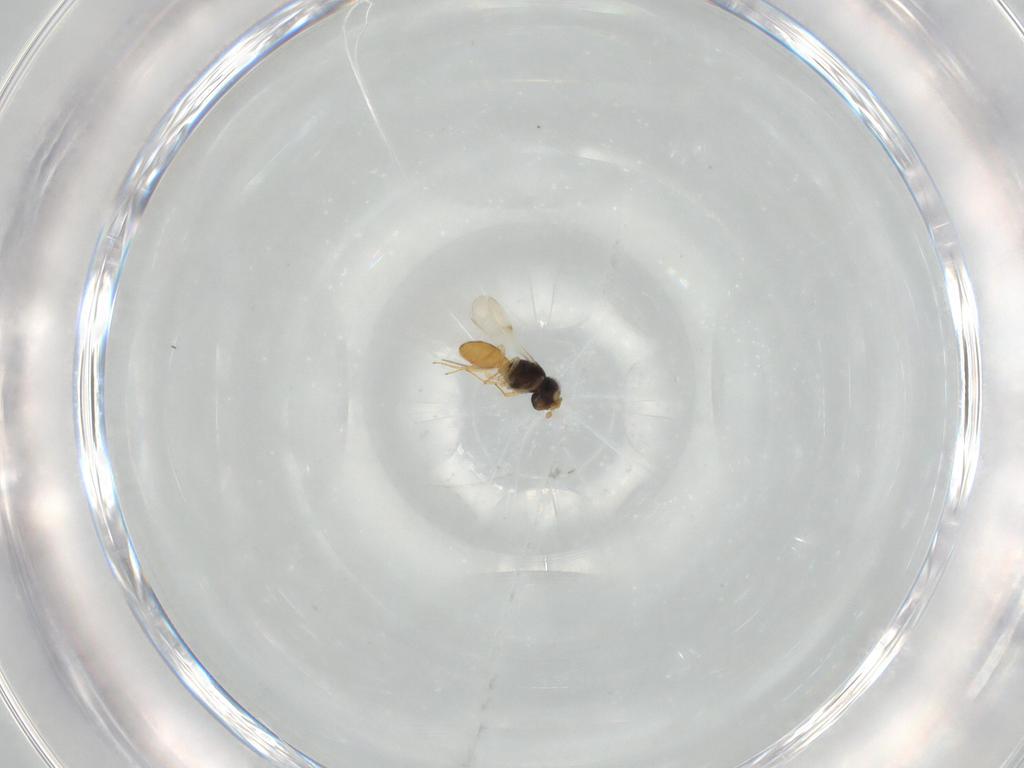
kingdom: Animalia
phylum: Arthropoda
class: Insecta
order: Hymenoptera
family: Scelionidae
